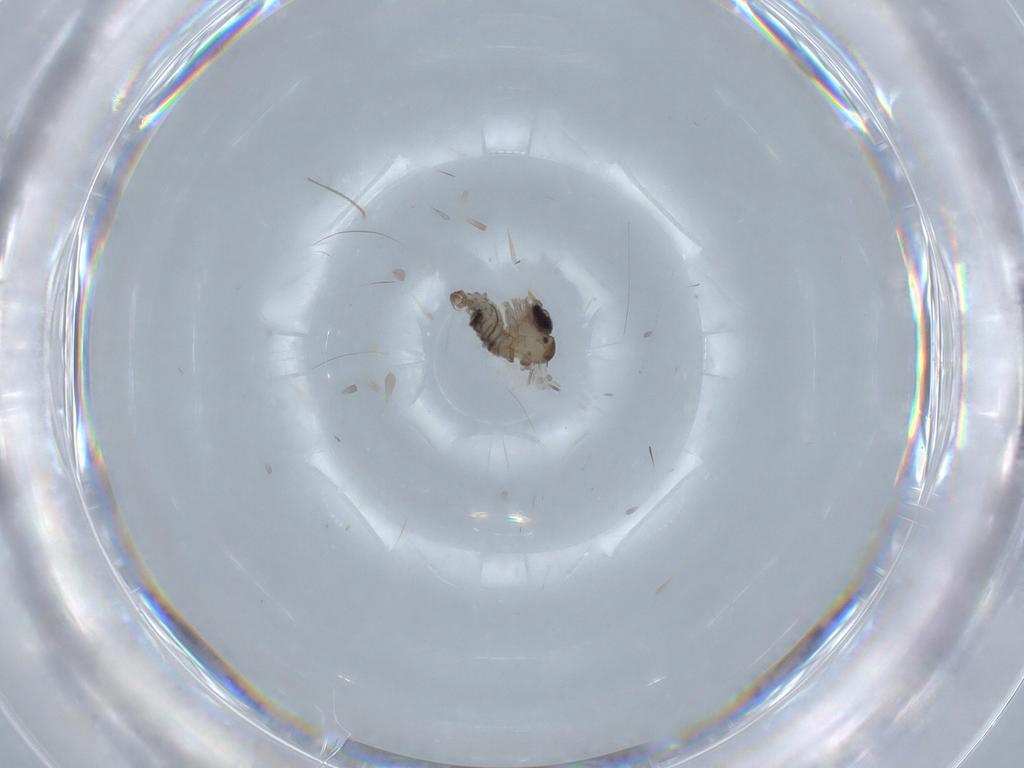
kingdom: Animalia
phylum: Arthropoda
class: Insecta
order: Diptera
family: Psychodidae
